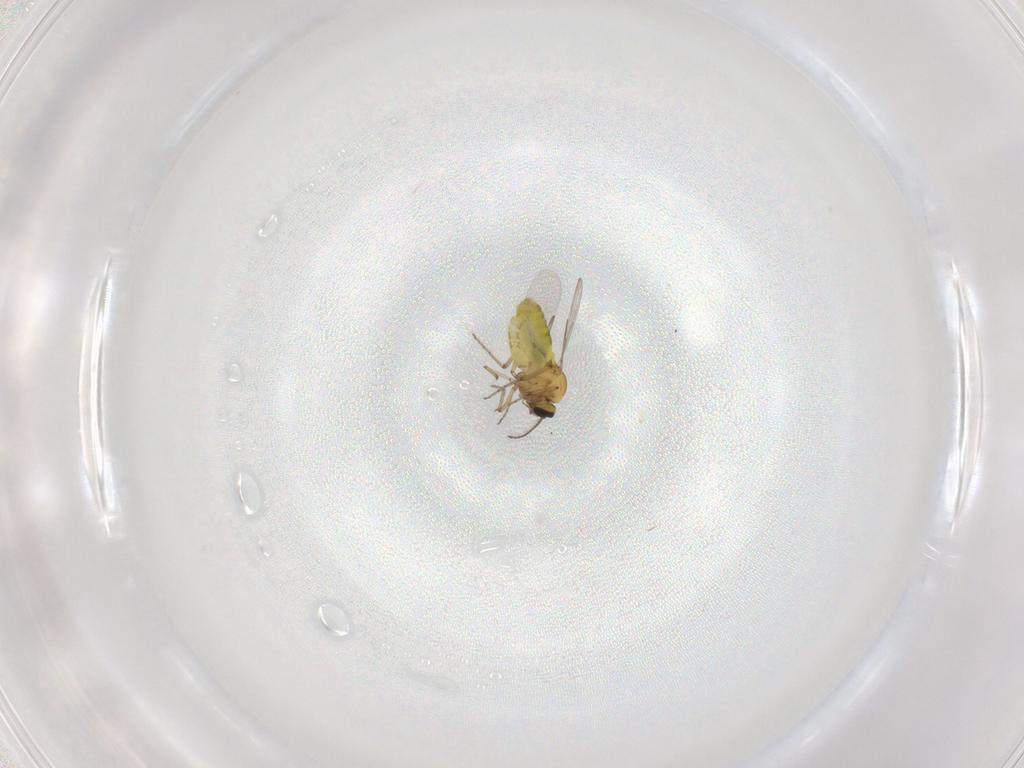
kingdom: Animalia
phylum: Arthropoda
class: Insecta
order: Diptera
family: Ceratopogonidae
